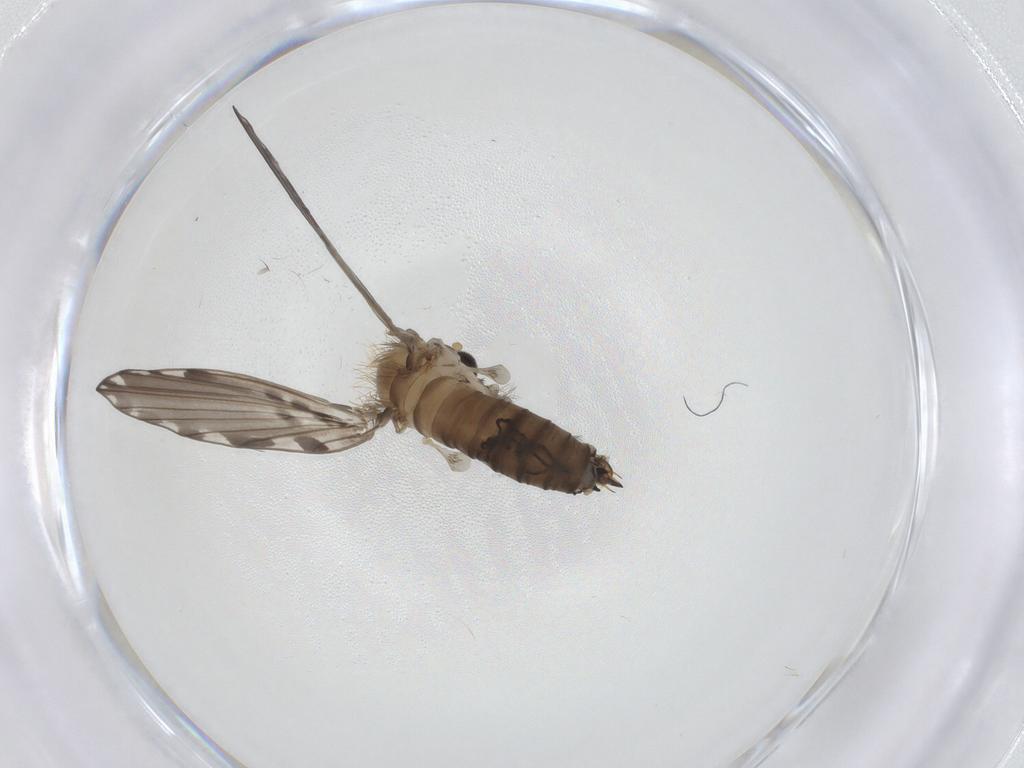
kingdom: Animalia
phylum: Arthropoda
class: Insecta
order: Diptera
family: Psychodidae
